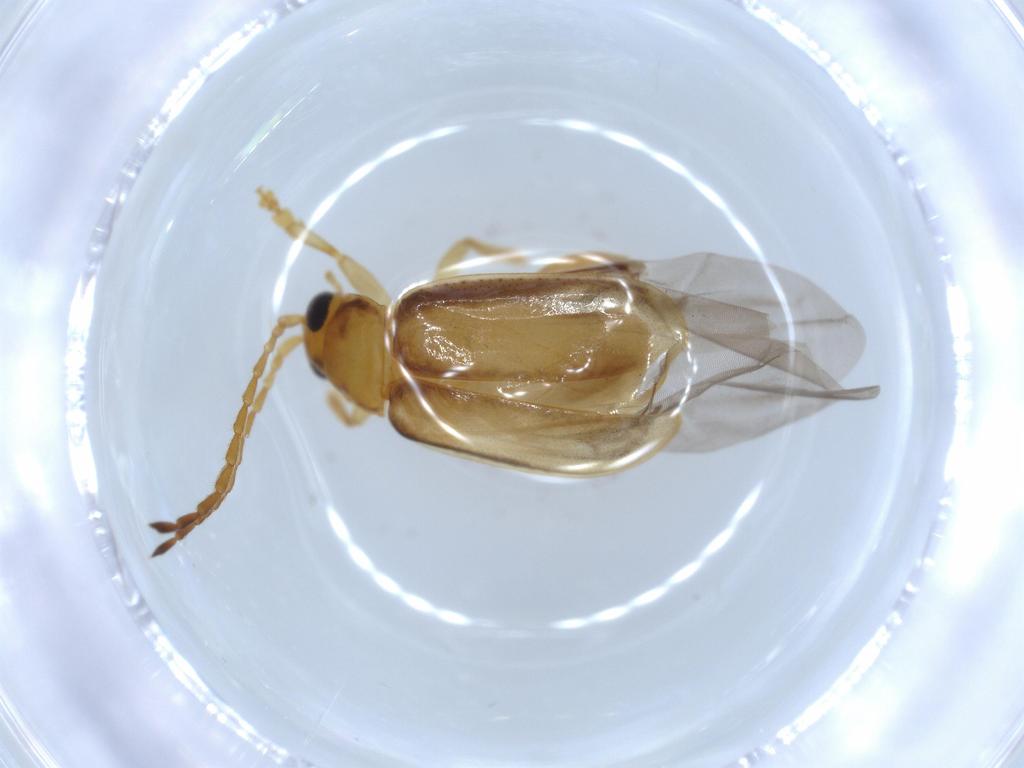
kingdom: Animalia
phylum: Arthropoda
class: Insecta
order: Coleoptera
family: Chrysomelidae
